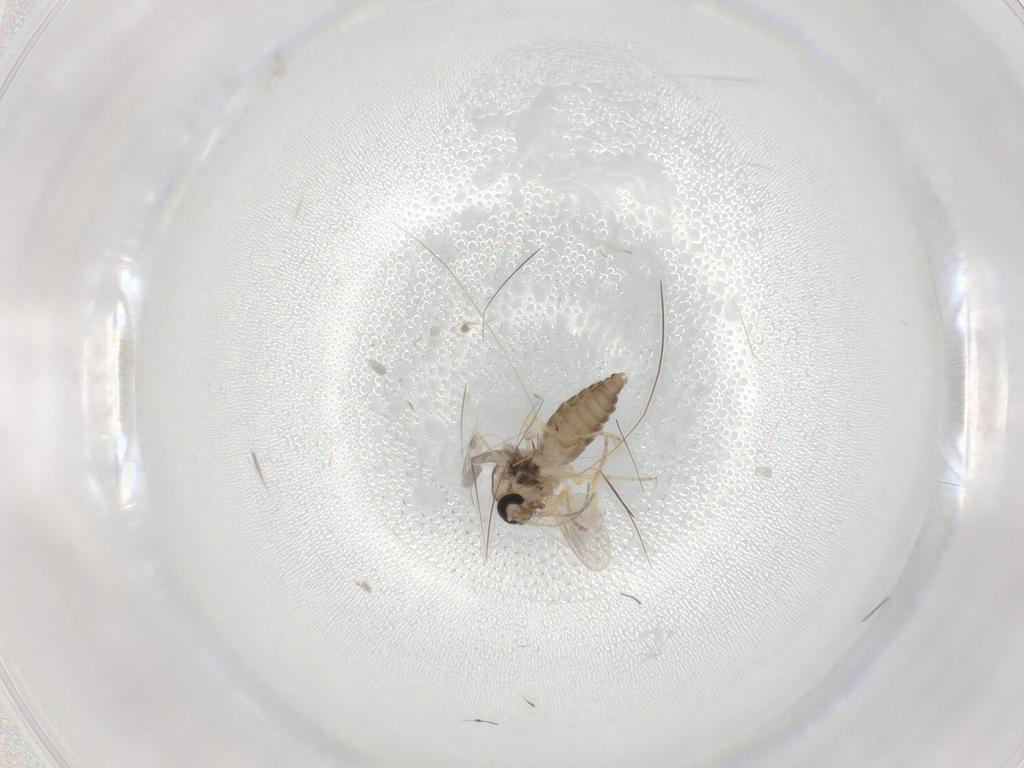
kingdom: Animalia
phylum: Arthropoda
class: Insecta
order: Diptera
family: Ceratopogonidae
